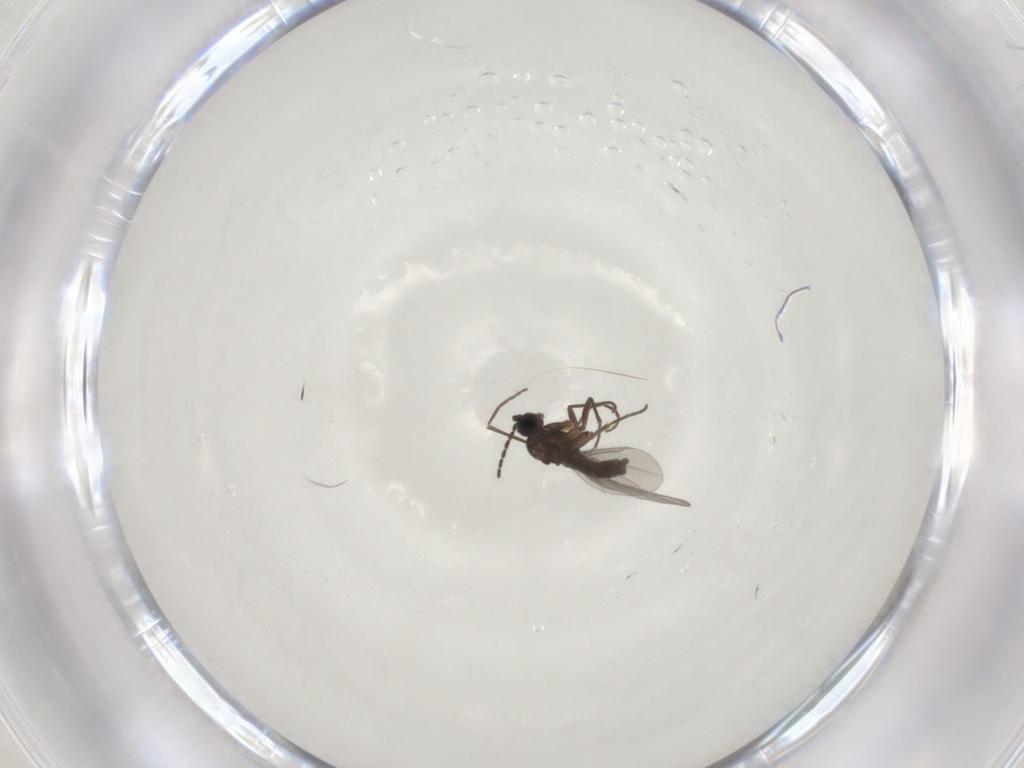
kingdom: Animalia
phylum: Arthropoda
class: Insecta
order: Diptera
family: Sciaridae
